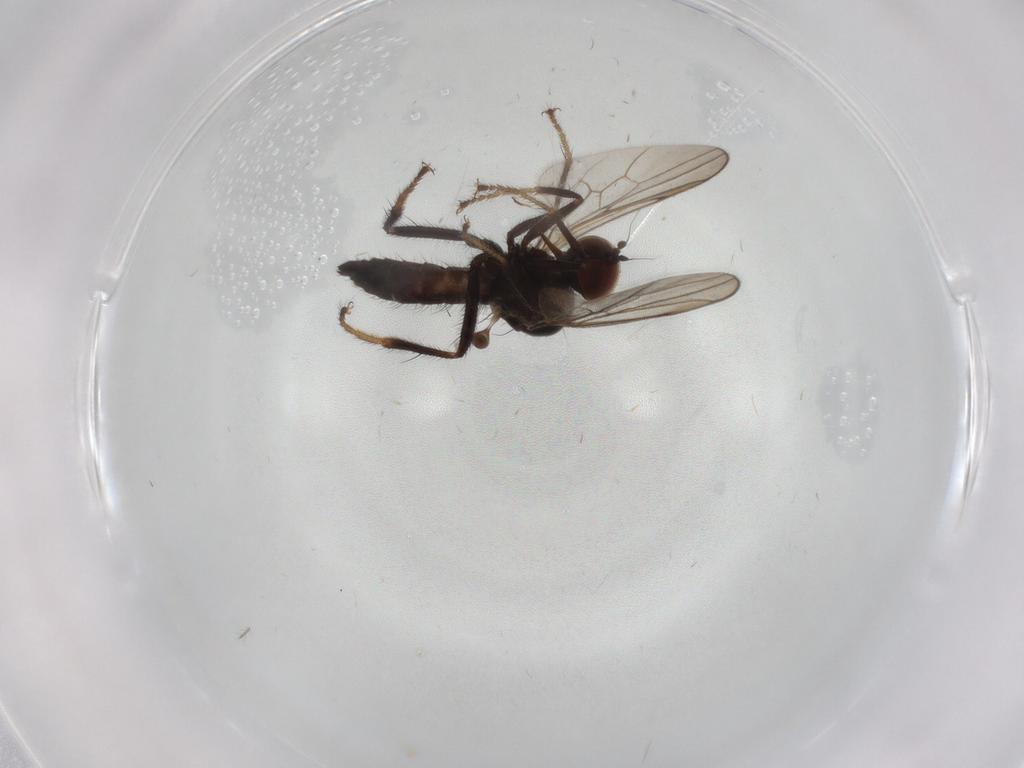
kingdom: Animalia
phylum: Arthropoda
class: Insecta
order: Diptera
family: Hybotidae
